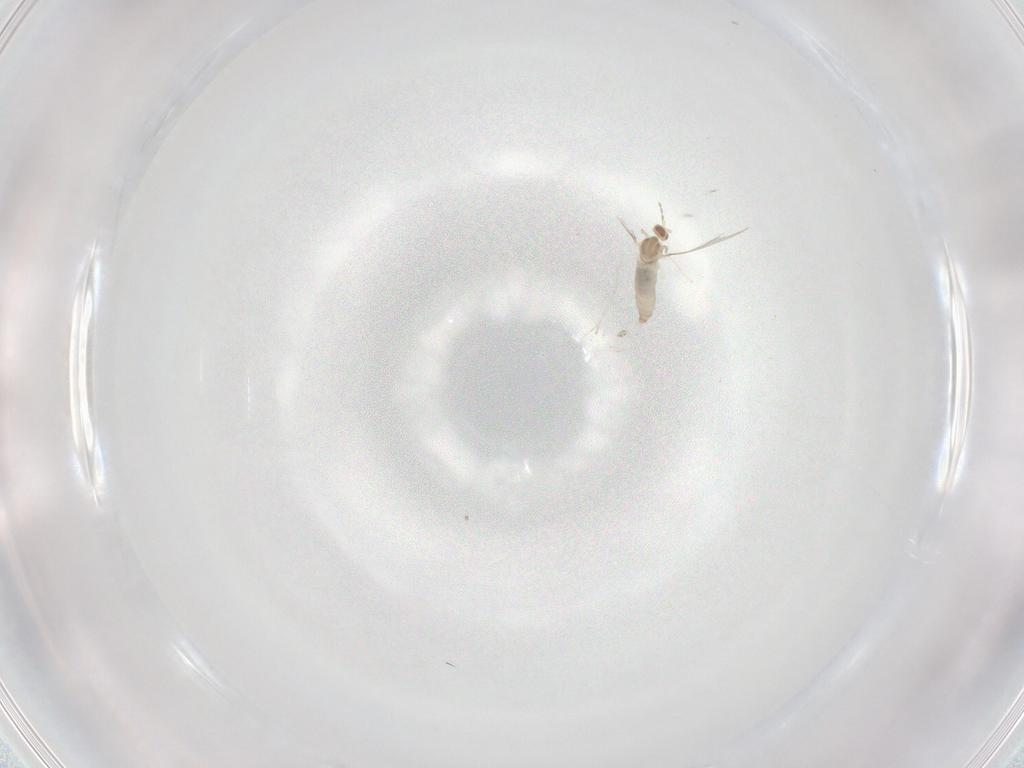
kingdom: Animalia
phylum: Arthropoda
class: Insecta
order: Diptera
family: Cecidomyiidae
